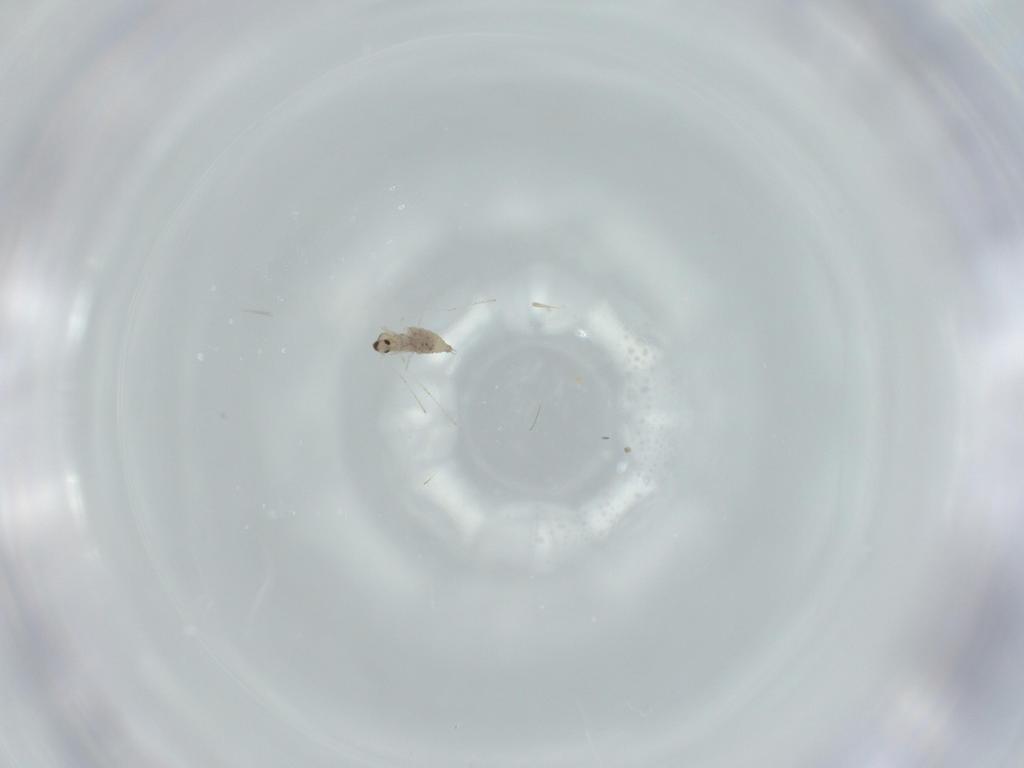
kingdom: Animalia
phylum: Arthropoda
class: Insecta
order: Diptera
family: Cecidomyiidae
